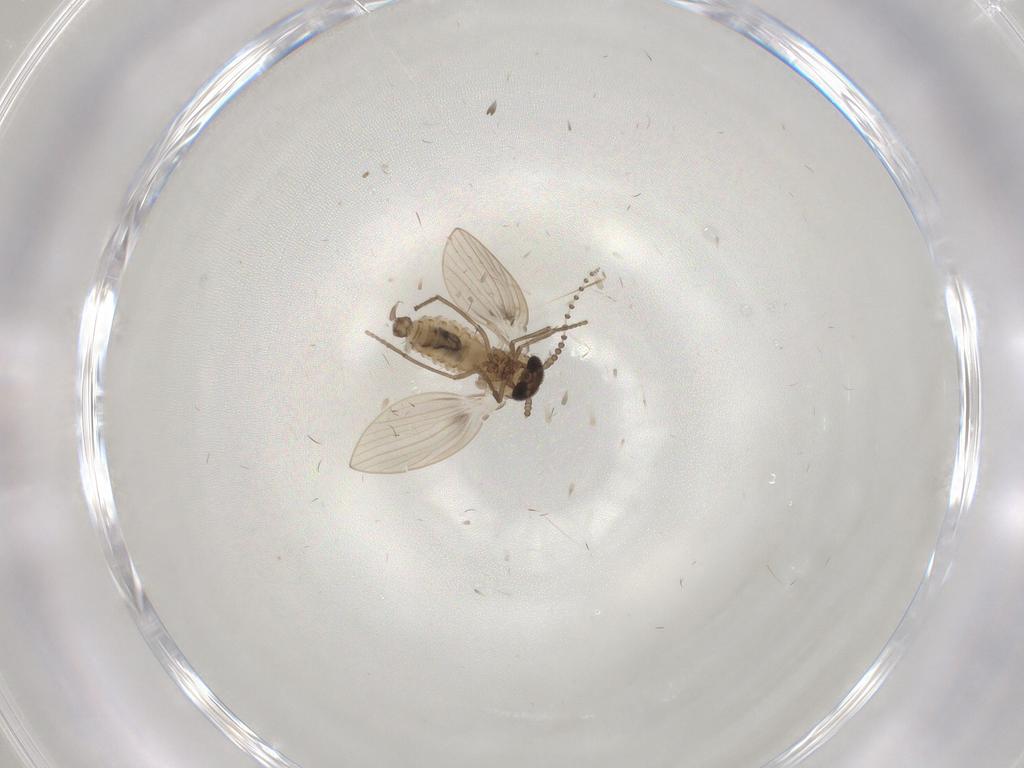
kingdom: Animalia
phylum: Arthropoda
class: Insecta
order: Diptera
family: Psychodidae
